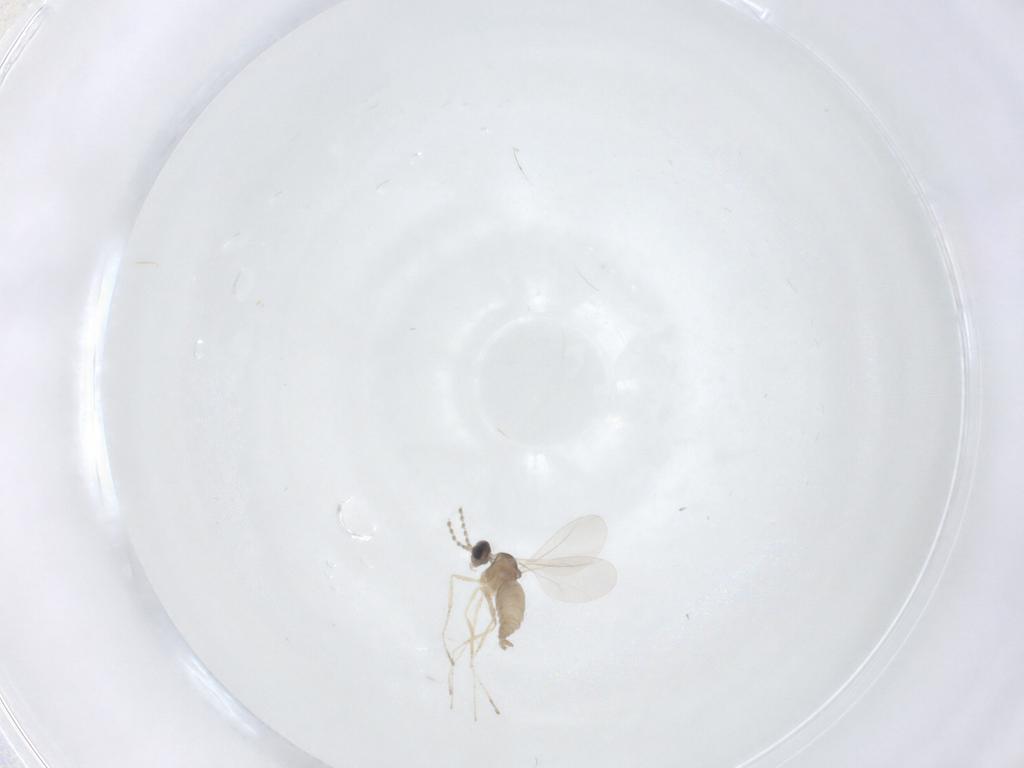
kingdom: Animalia
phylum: Arthropoda
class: Insecta
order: Diptera
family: Cecidomyiidae
